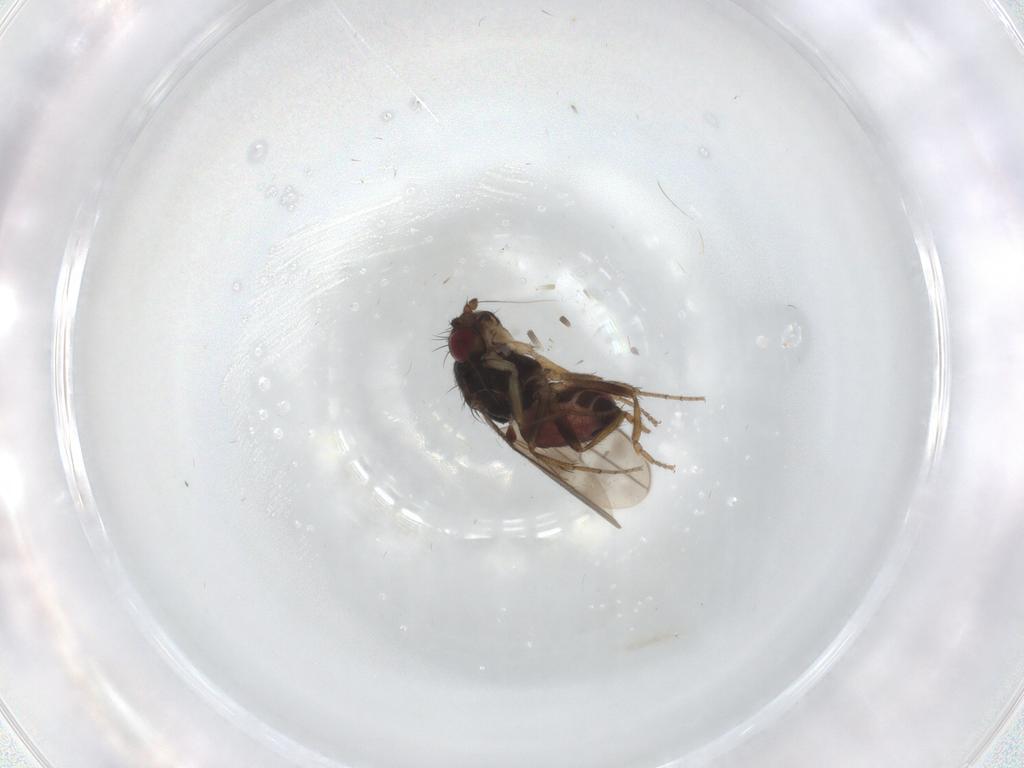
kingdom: Animalia
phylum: Arthropoda
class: Insecta
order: Diptera
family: Sphaeroceridae
